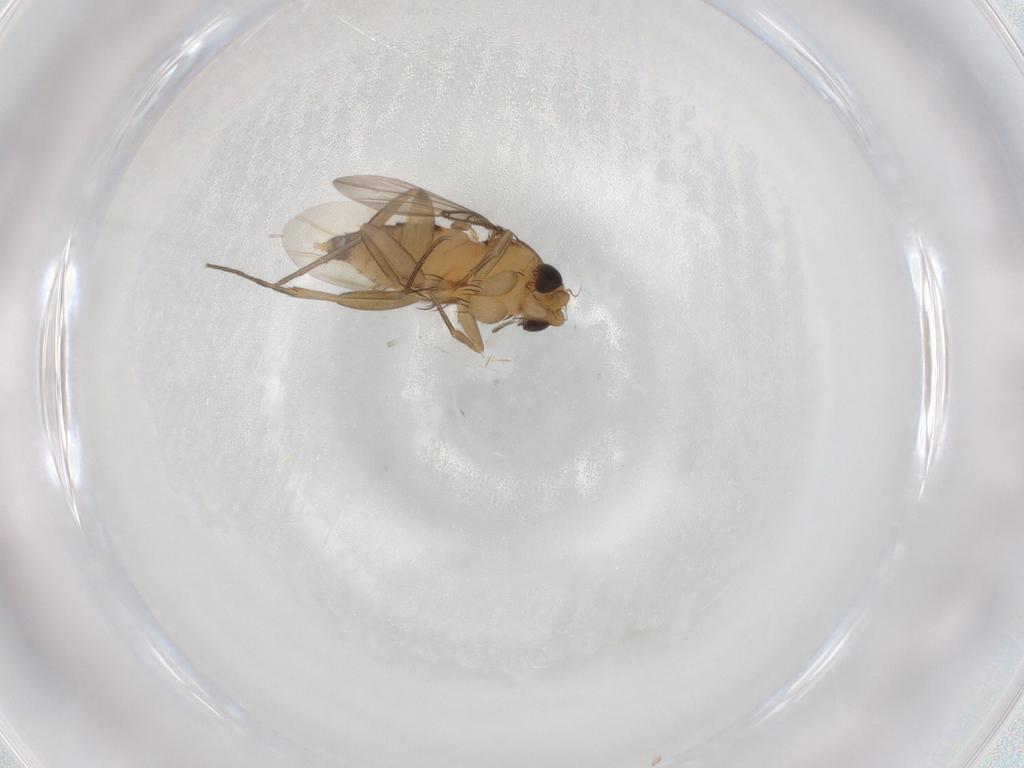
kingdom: Animalia
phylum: Arthropoda
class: Insecta
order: Diptera
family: Phoridae
